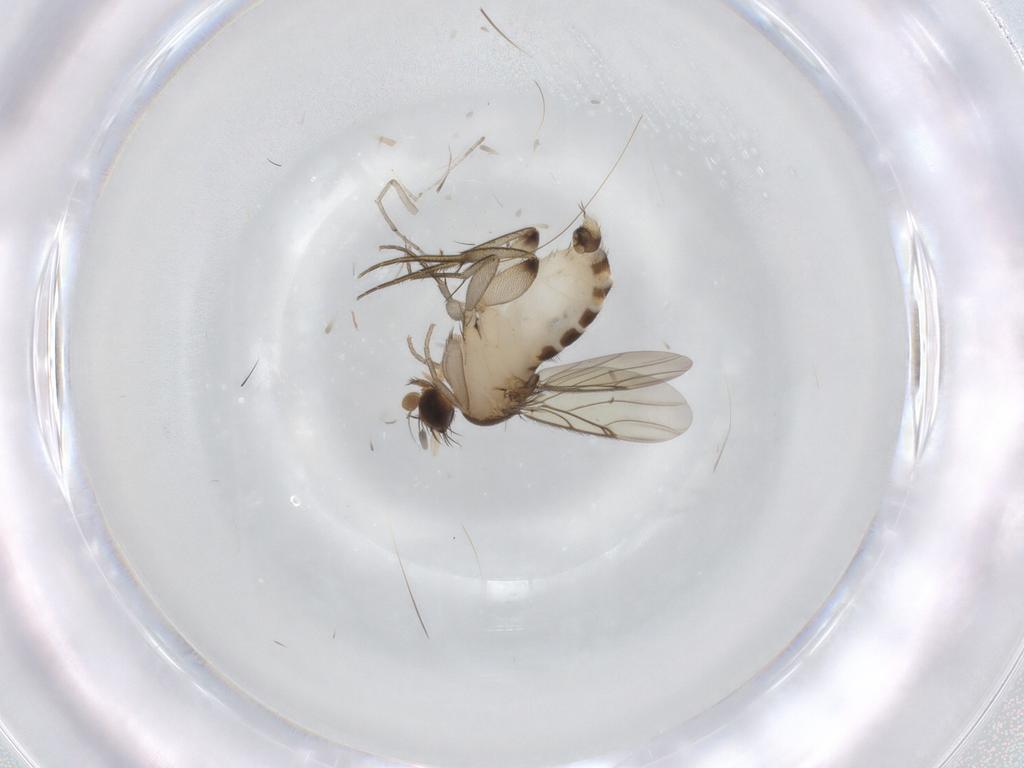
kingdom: Animalia
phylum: Arthropoda
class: Insecta
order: Diptera
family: Phoridae
